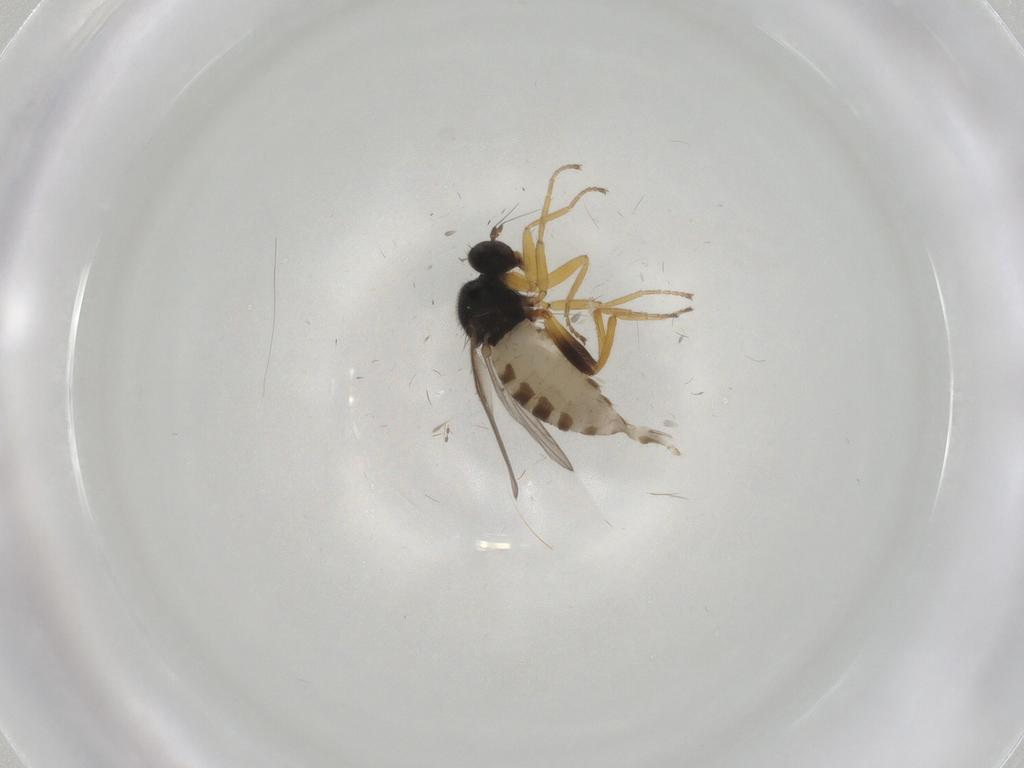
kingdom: Animalia
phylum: Arthropoda
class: Insecta
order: Diptera
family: Hybotidae
